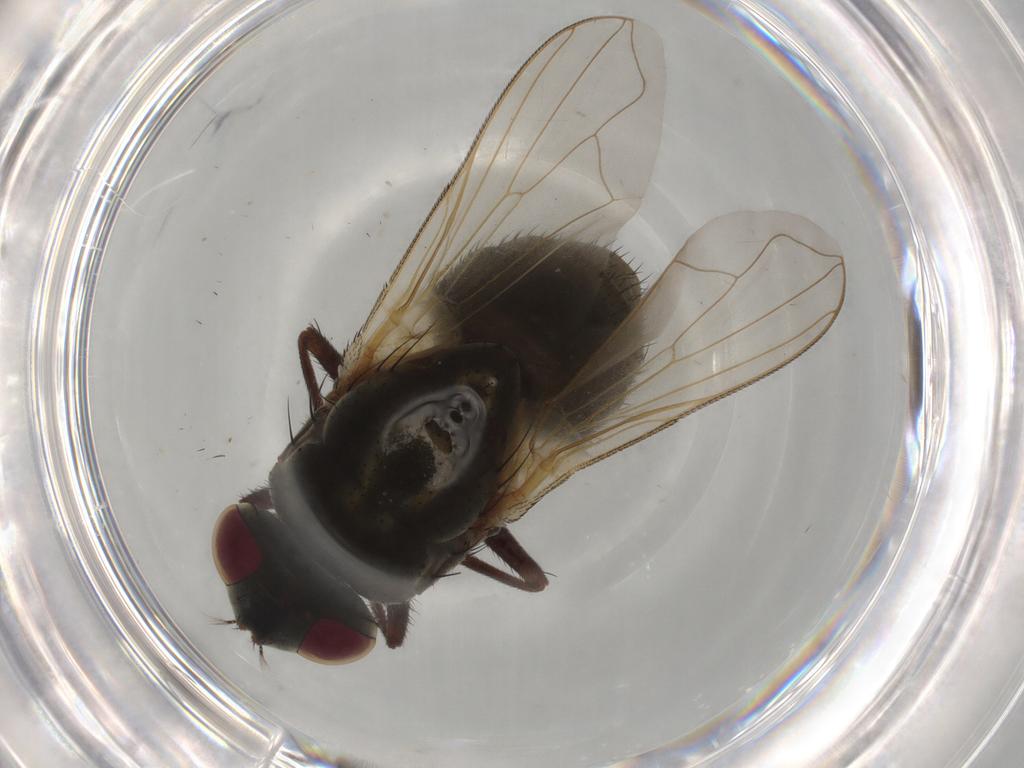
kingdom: Animalia
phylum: Arthropoda
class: Insecta
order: Diptera
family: Muscidae
